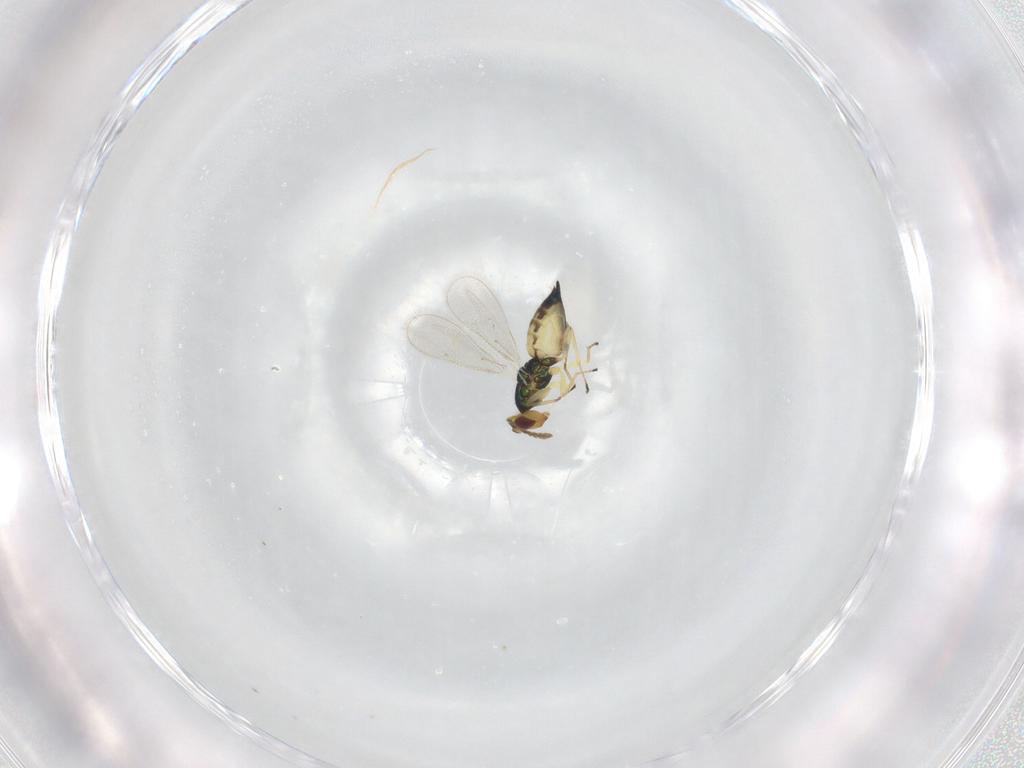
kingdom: Animalia
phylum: Arthropoda
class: Insecta
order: Hymenoptera
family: Eulophidae
